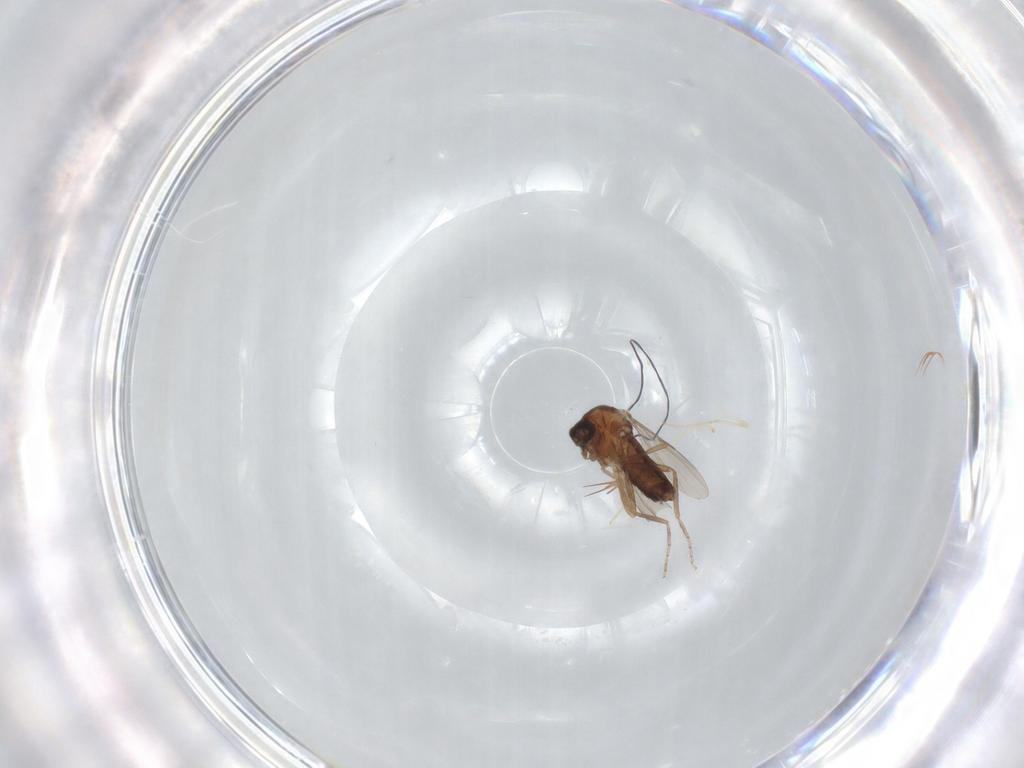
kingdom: Animalia
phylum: Arthropoda
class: Insecta
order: Diptera
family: Ceratopogonidae
